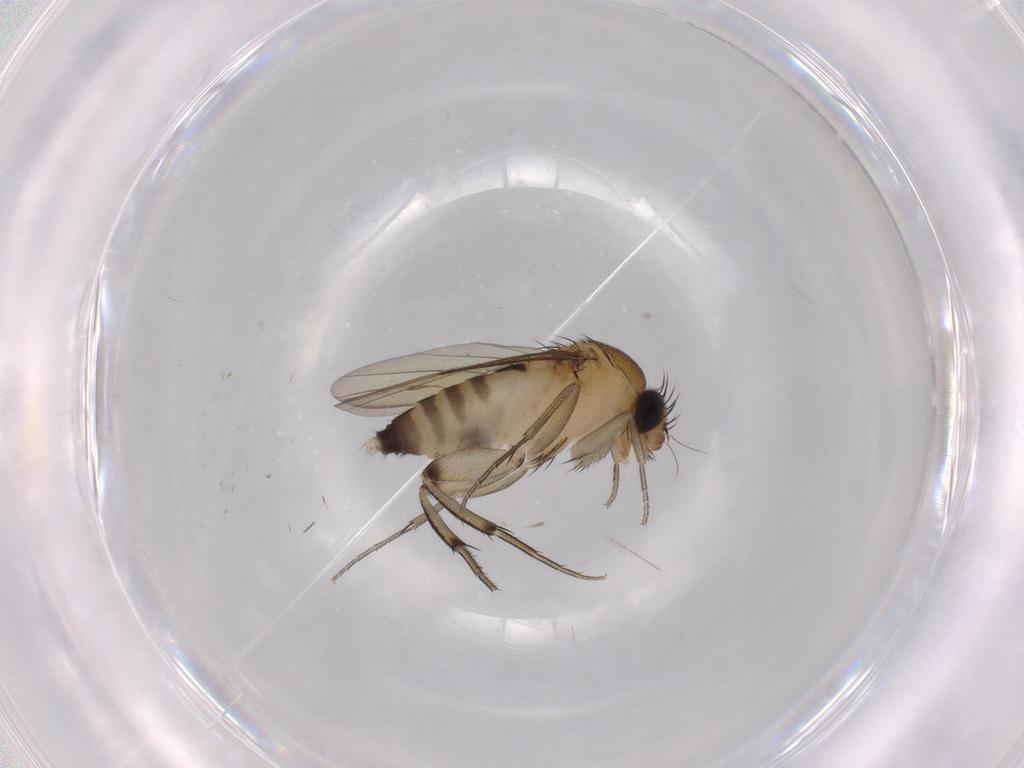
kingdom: Animalia
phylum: Arthropoda
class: Insecta
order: Diptera
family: Phoridae
